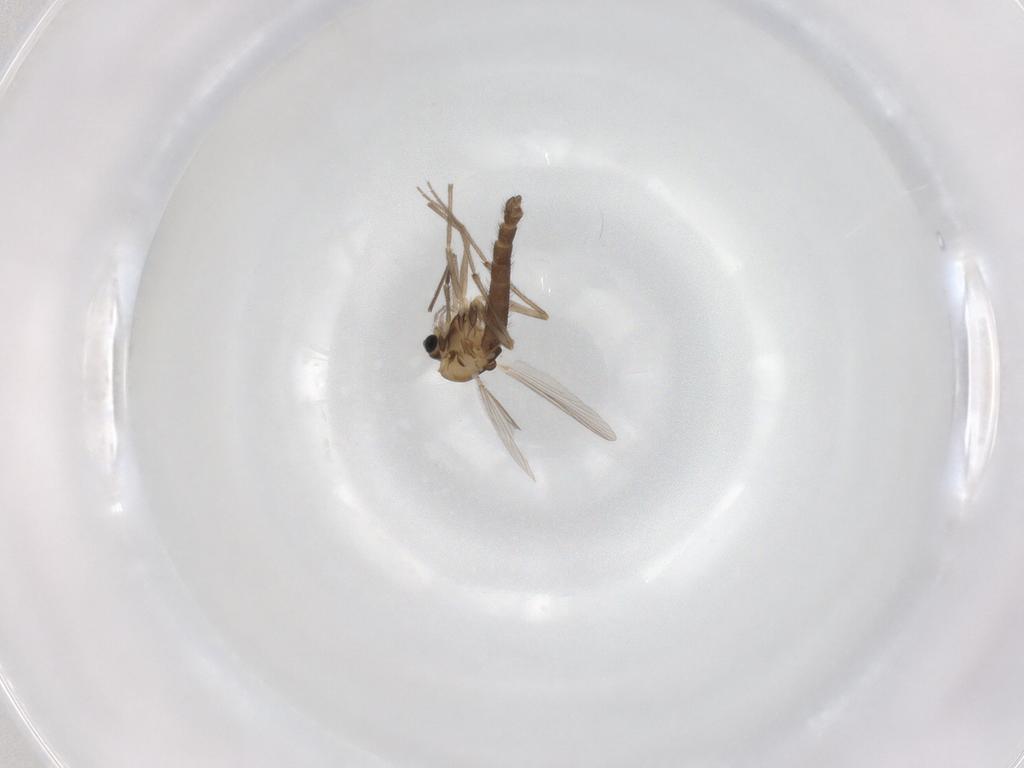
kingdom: Animalia
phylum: Arthropoda
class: Insecta
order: Diptera
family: Chironomidae
